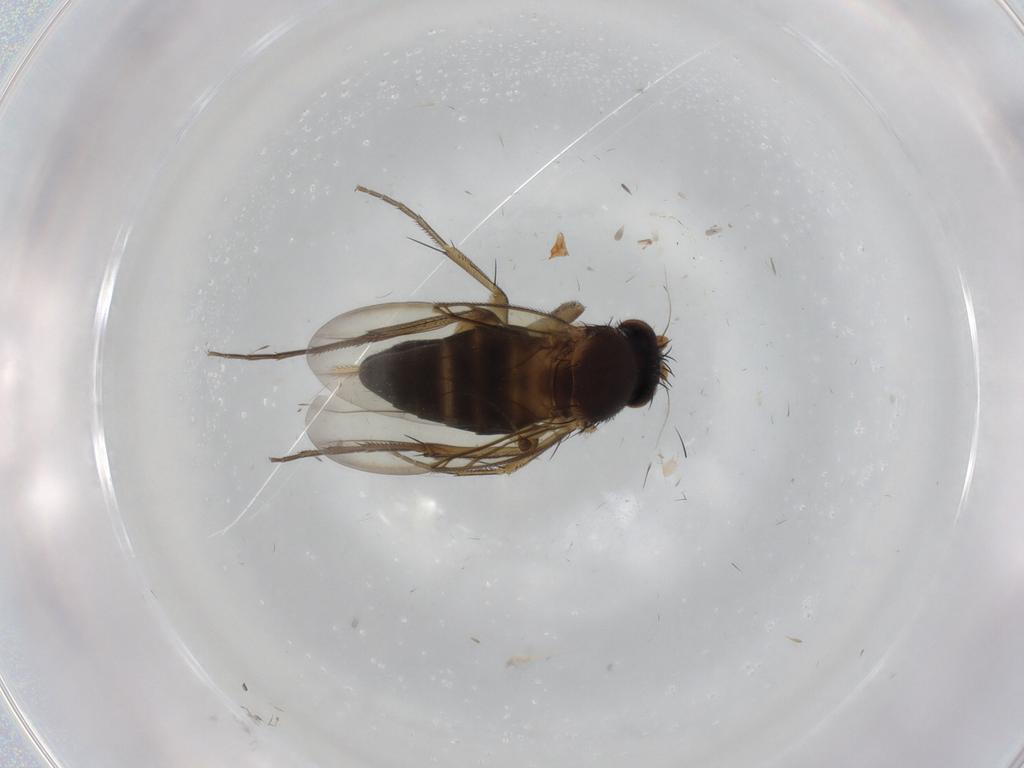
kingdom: Animalia
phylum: Arthropoda
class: Insecta
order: Diptera
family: Phoridae
